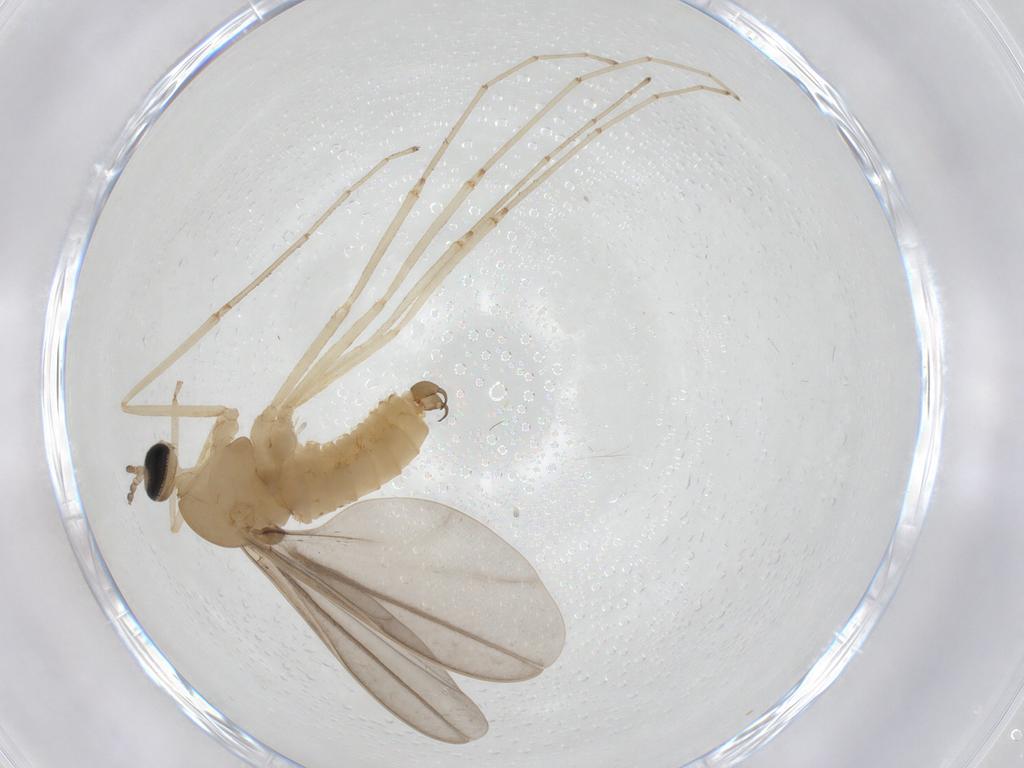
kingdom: Animalia
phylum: Arthropoda
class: Insecta
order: Diptera
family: Cecidomyiidae
